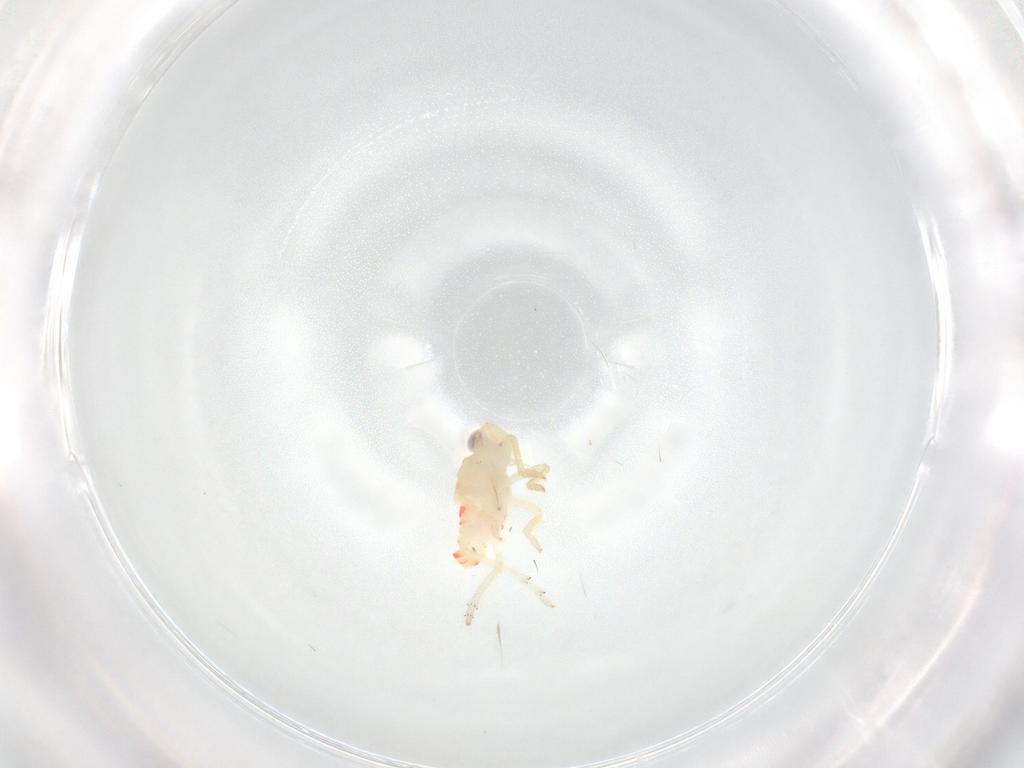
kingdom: Animalia
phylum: Arthropoda
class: Insecta
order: Hemiptera
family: Tropiduchidae
